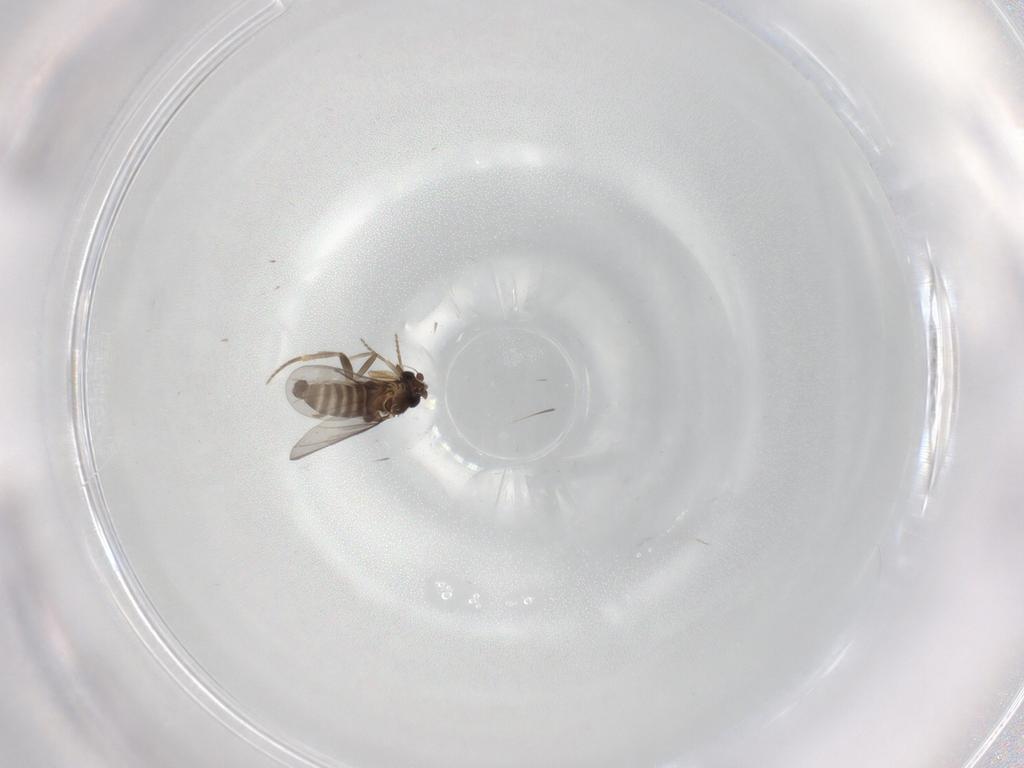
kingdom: Animalia
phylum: Arthropoda
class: Insecta
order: Diptera
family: Phoridae
